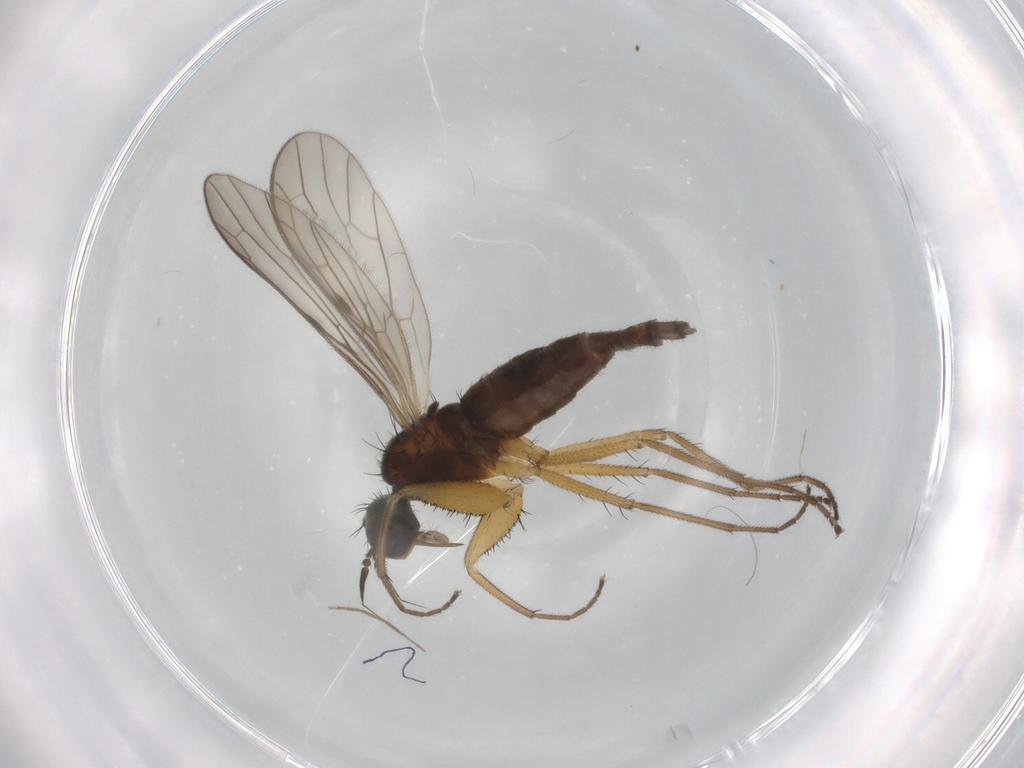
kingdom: Animalia
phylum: Arthropoda
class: Insecta
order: Diptera
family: Chironomidae
